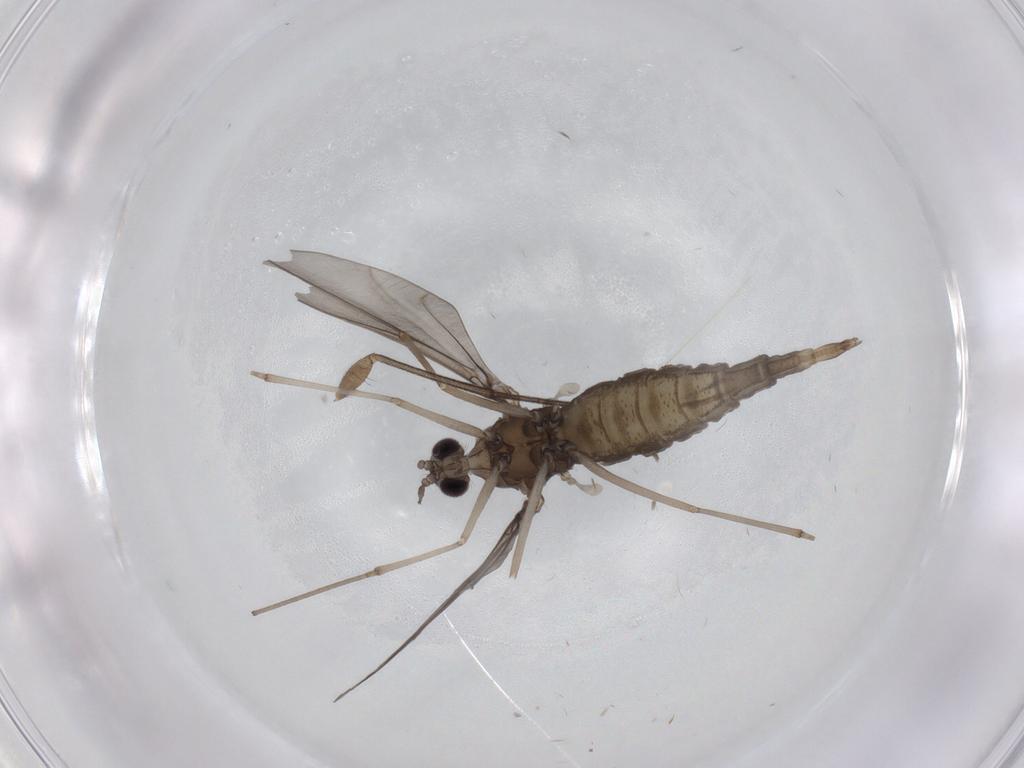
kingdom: Animalia
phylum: Arthropoda
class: Insecta
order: Diptera
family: Mycetophilidae
